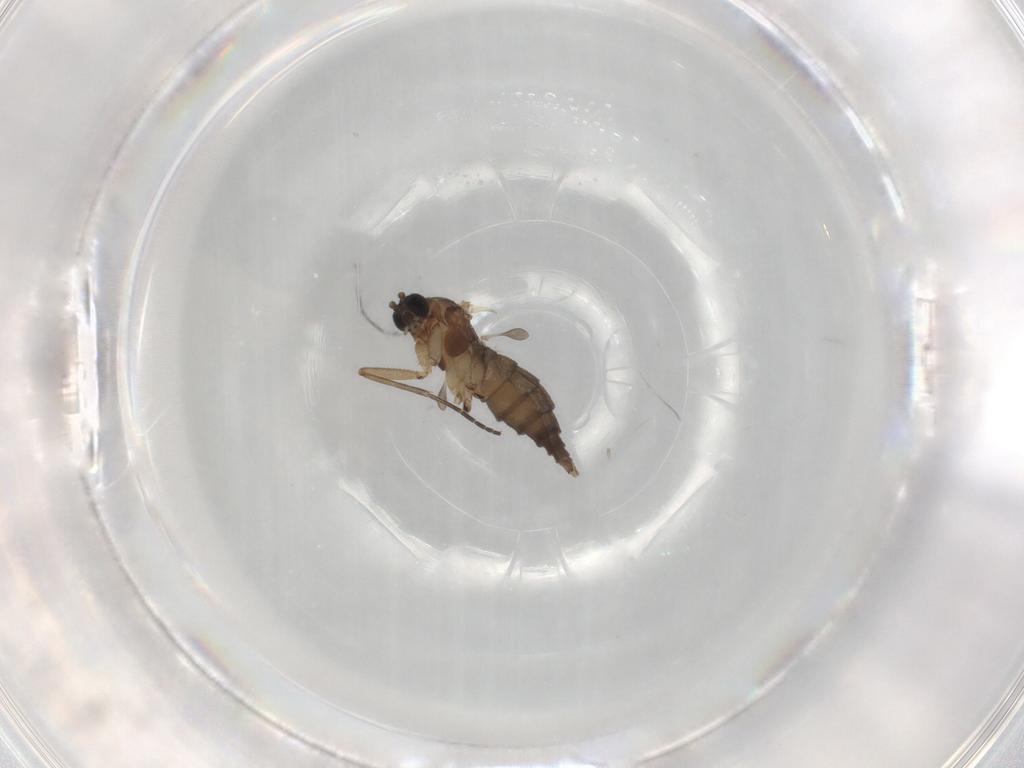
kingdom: Animalia
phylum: Arthropoda
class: Insecta
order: Diptera
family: Sciaridae
